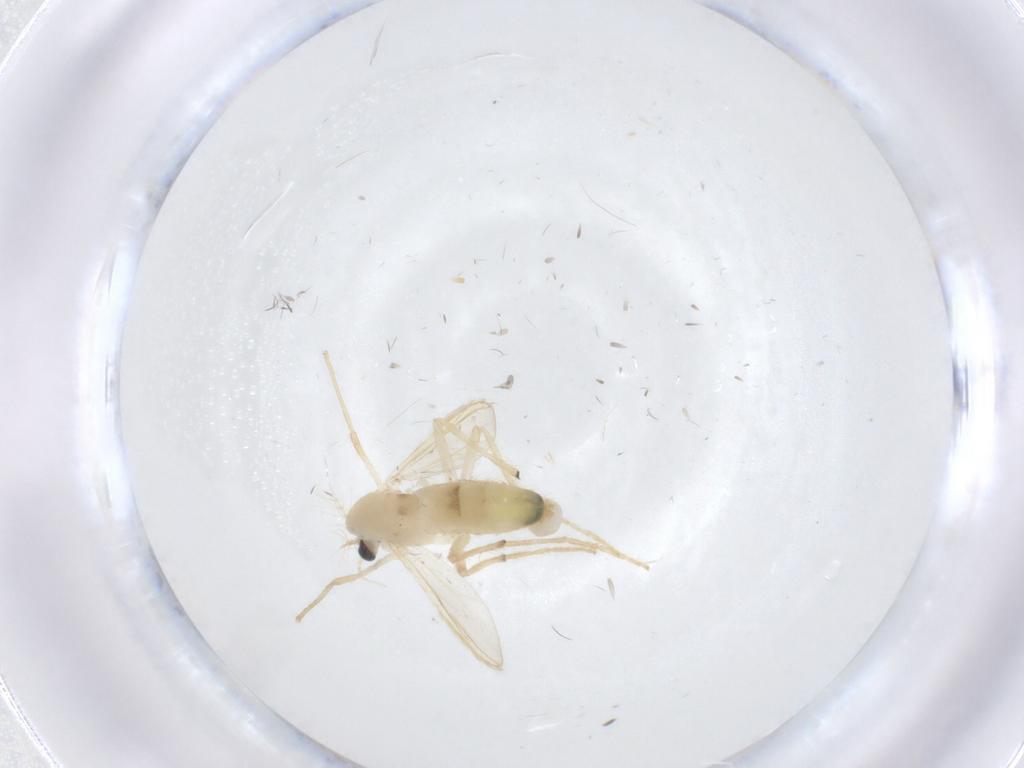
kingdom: Animalia
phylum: Arthropoda
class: Insecta
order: Diptera
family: Chironomidae
